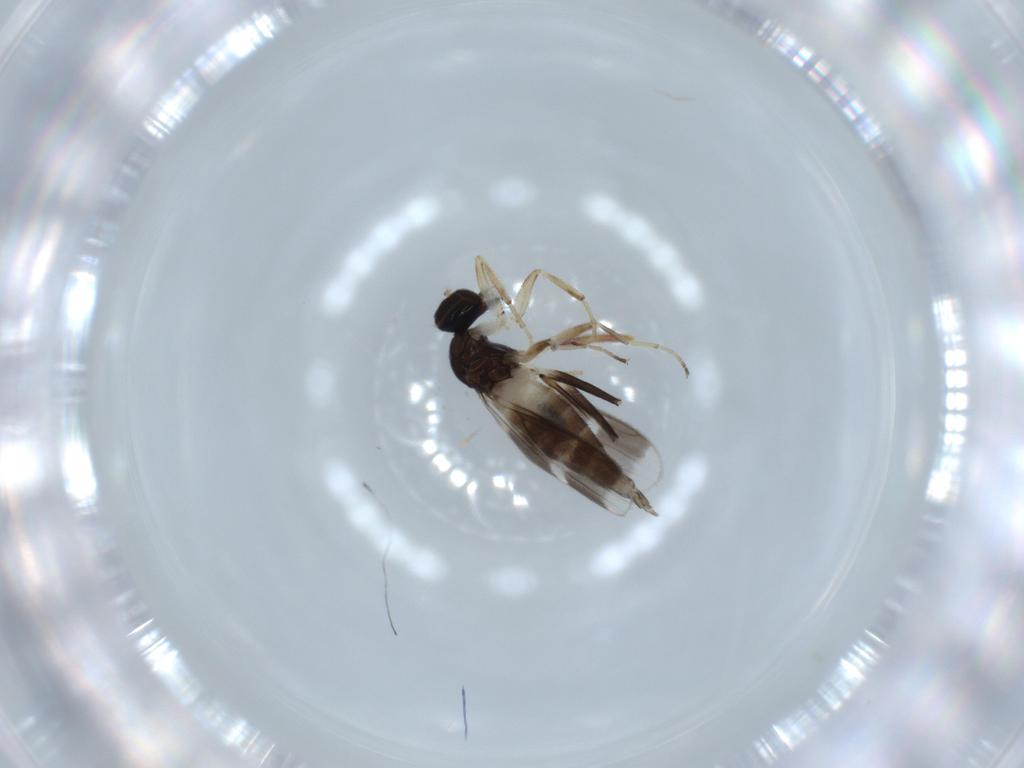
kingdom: Animalia
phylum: Arthropoda
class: Insecta
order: Diptera
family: Hybotidae
